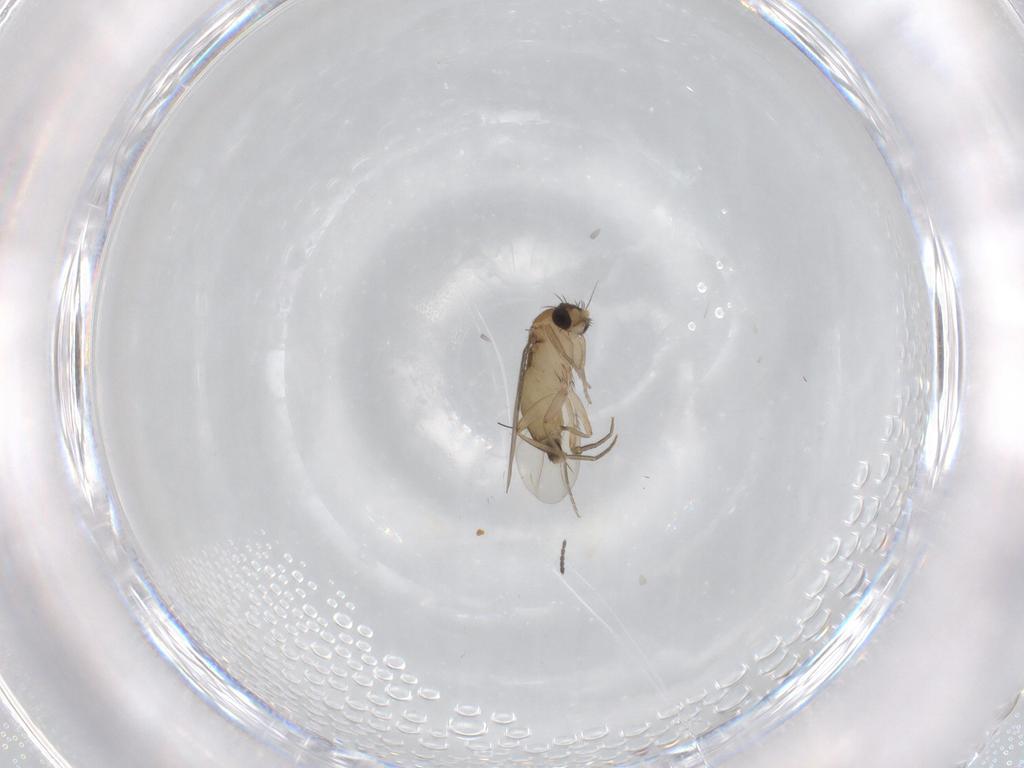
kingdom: Animalia
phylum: Arthropoda
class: Insecta
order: Diptera
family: Phoridae
